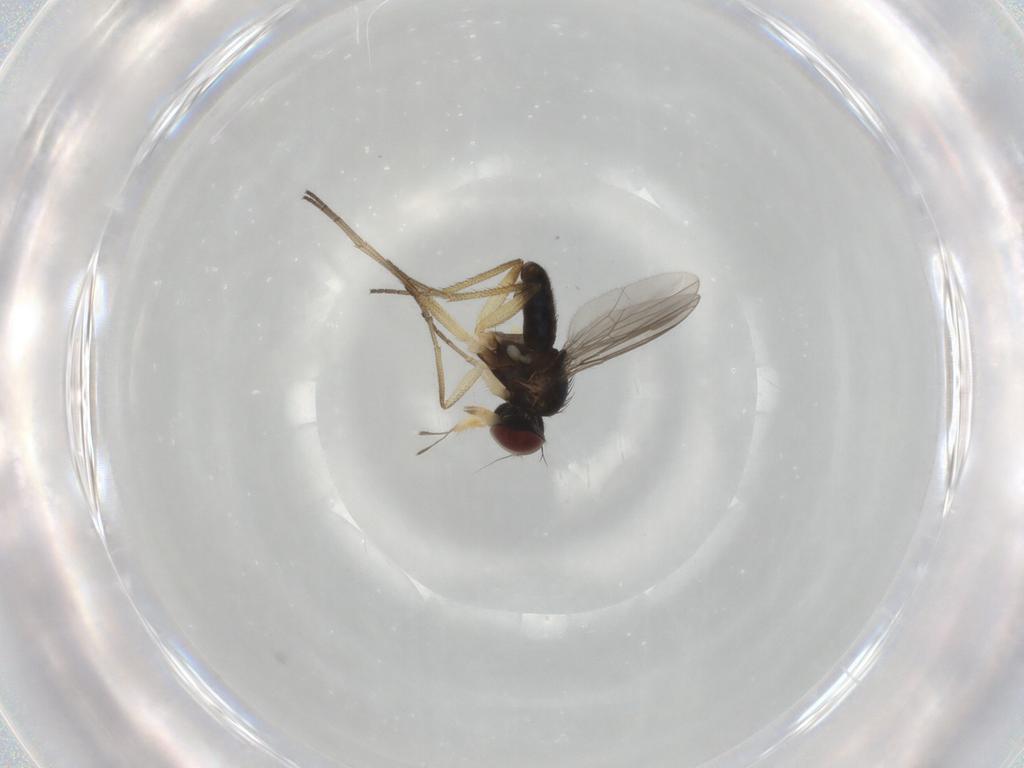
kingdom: Animalia
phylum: Arthropoda
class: Insecta
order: Diptera
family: Dolichopodidae
